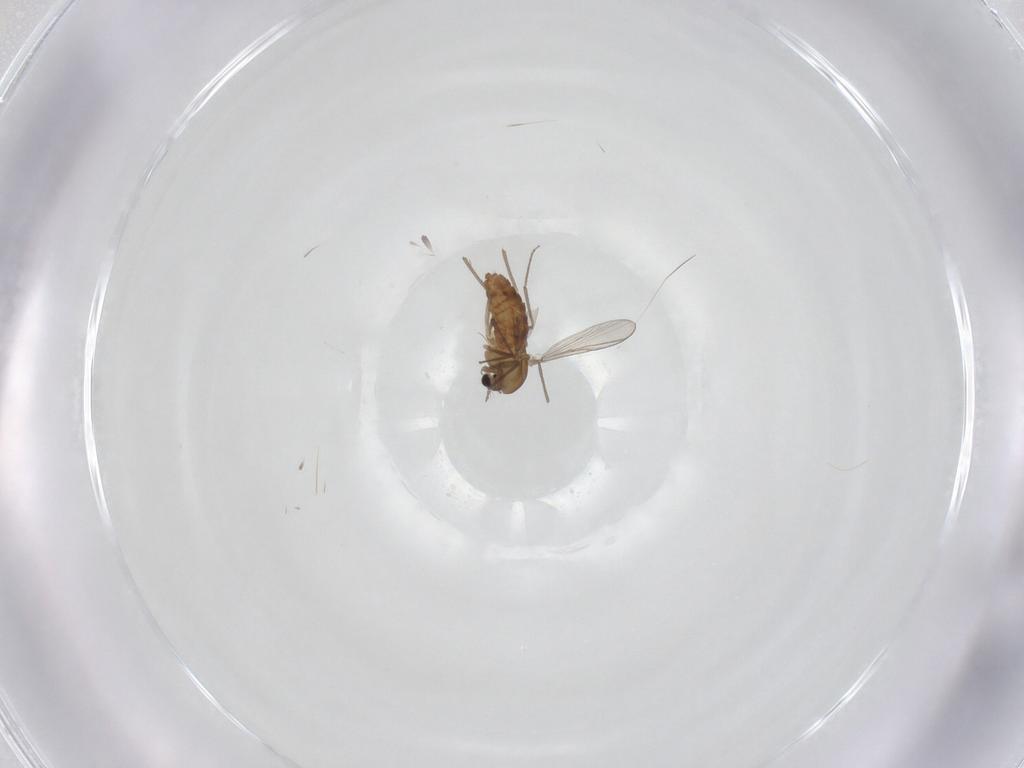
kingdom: Animalia
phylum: Arthropoda
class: Insecta
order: Diptera
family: Chironomidae
